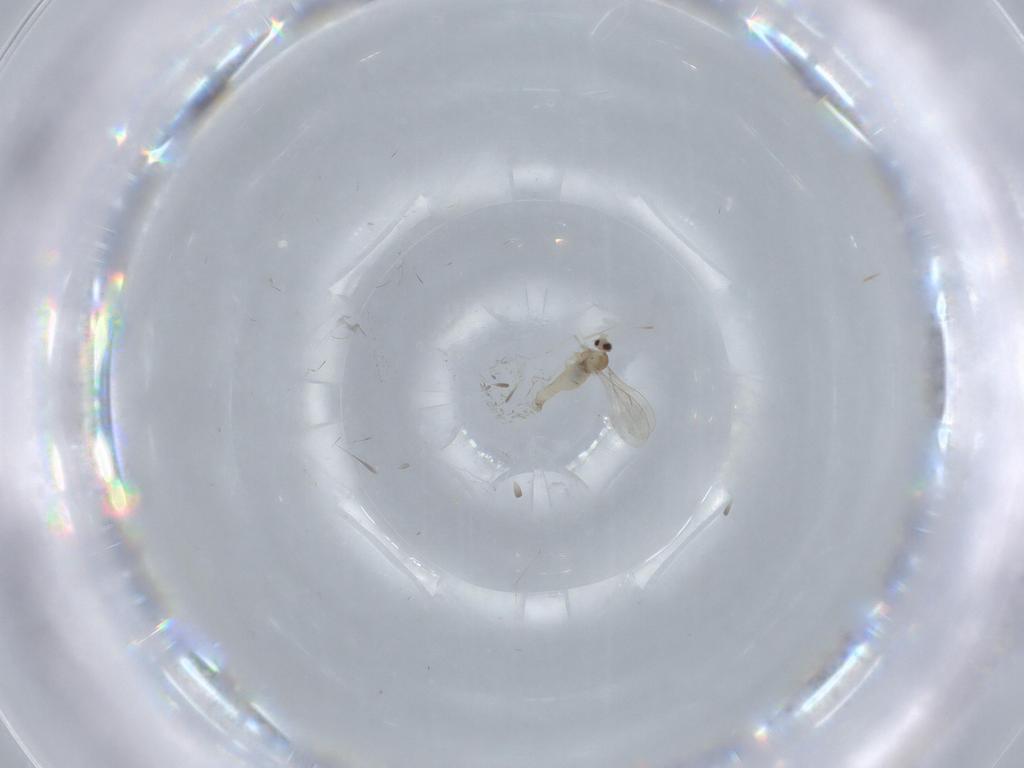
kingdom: Animalia
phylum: Arthropoda
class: Insecta
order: Diptera
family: Cecidomyiidae
